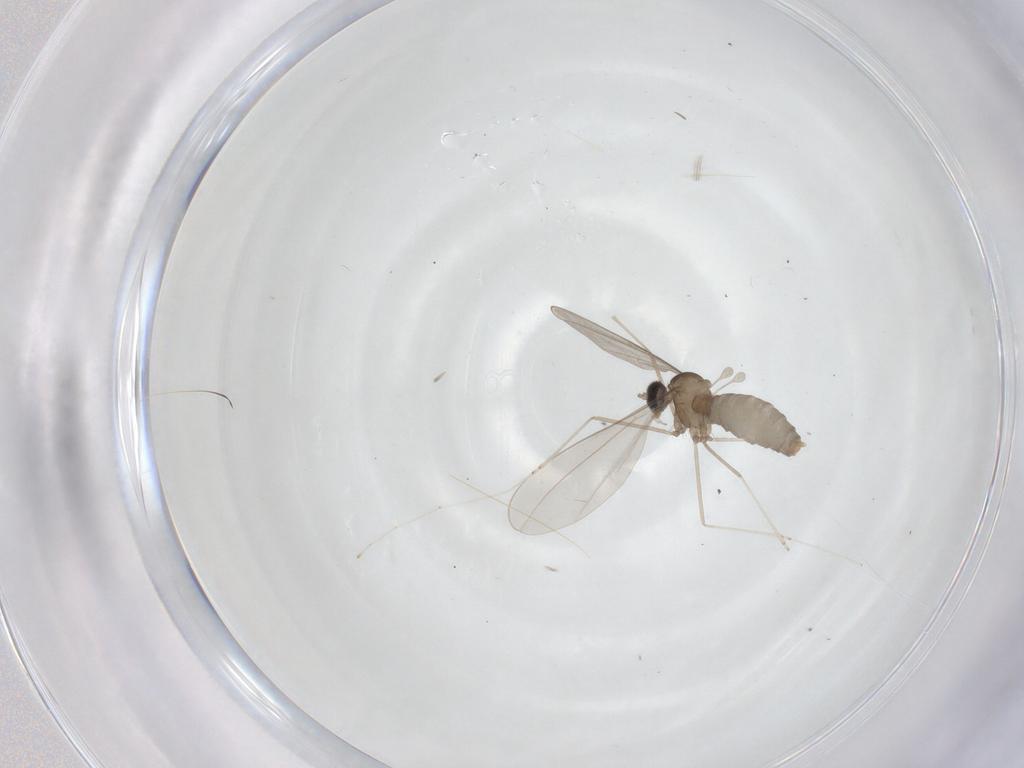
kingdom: Animalia
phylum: Arthropoda
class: Insecta
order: Diptera
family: Cecidomyiidae
